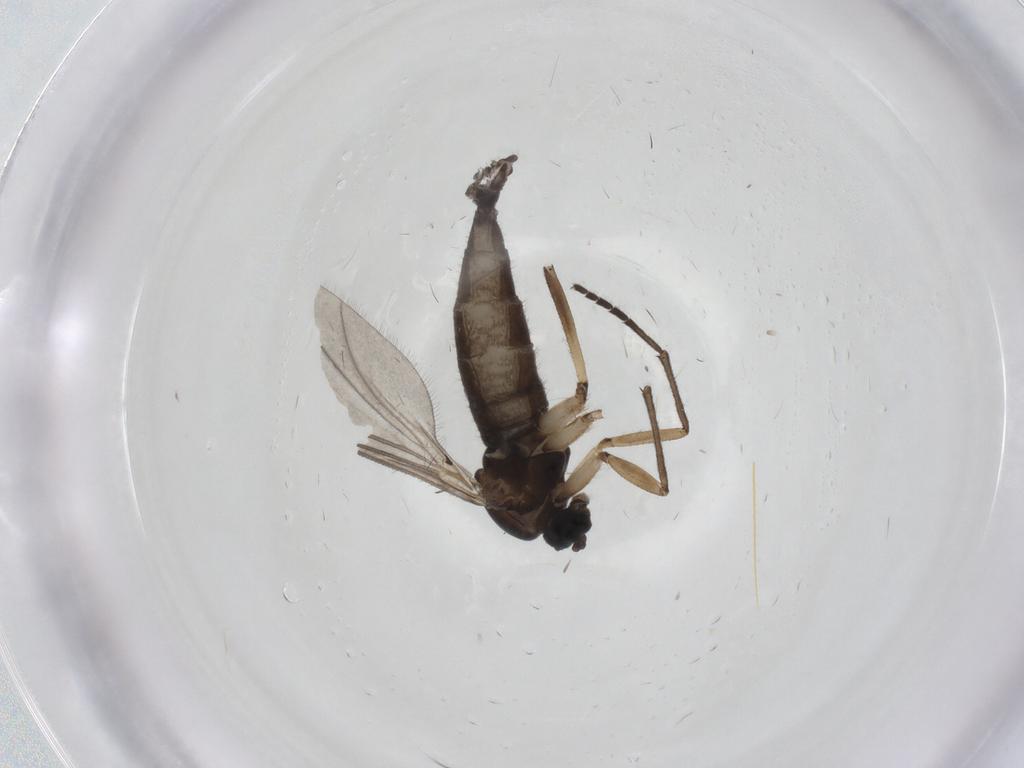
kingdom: Animalia
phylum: Arthropoda
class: Insecta
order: Diptera
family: Sciaridae
